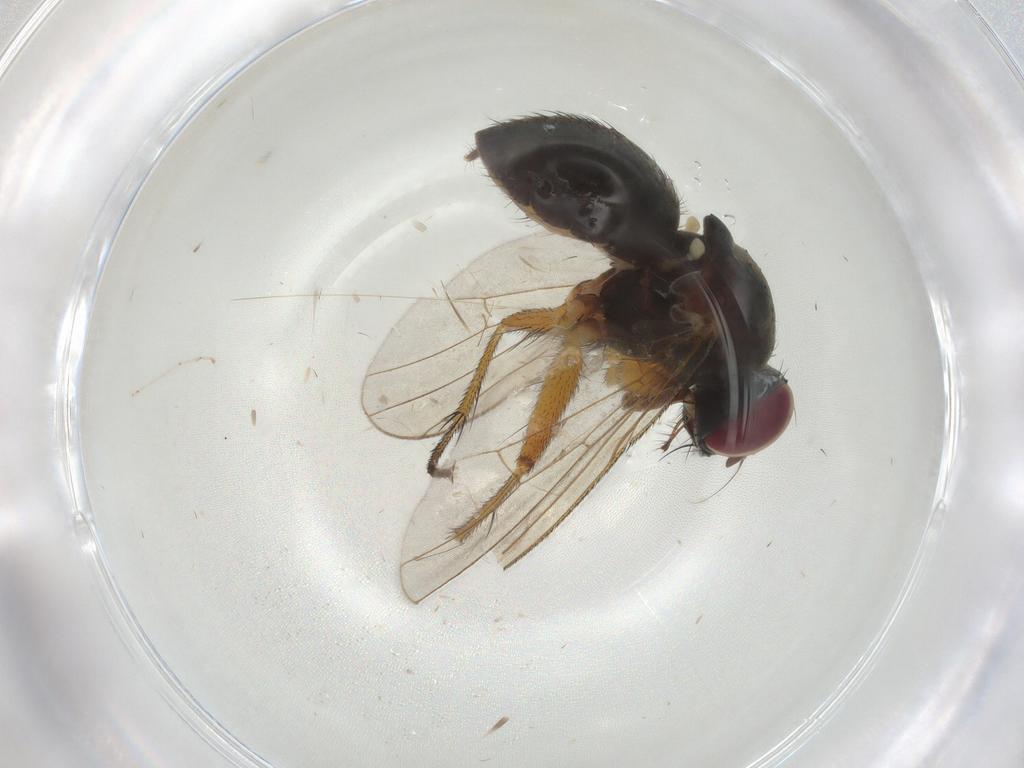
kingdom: Animalia
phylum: Arthropoda
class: Insecta
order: Diptera
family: Muscidae
